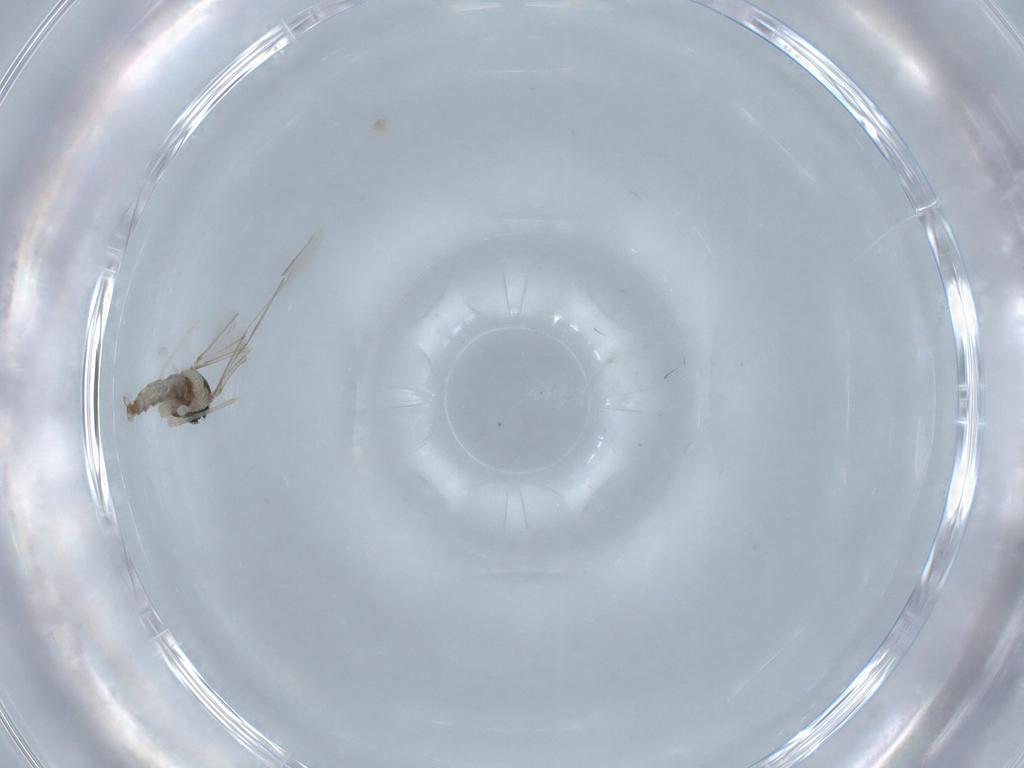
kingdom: Animalia
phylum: Arthropoda
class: Insecta
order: Diptera
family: Cecidomyiidae
